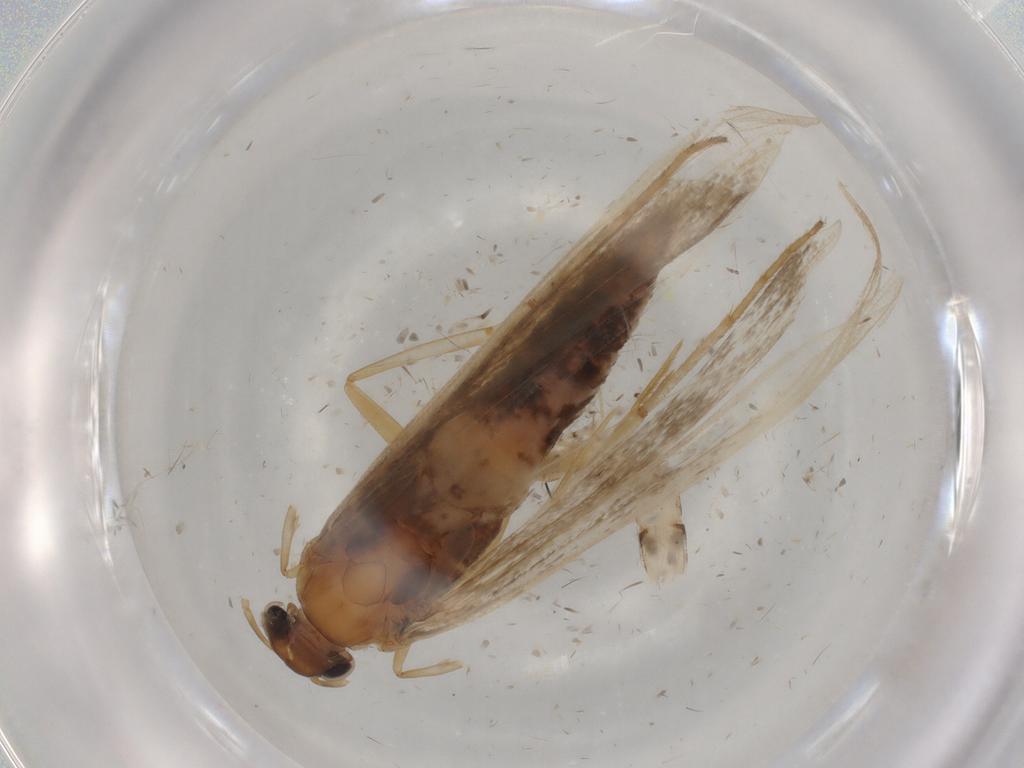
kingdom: Animalia
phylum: Arthropoda
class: Insecta
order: Lepidoptera
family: Gelechiidae
